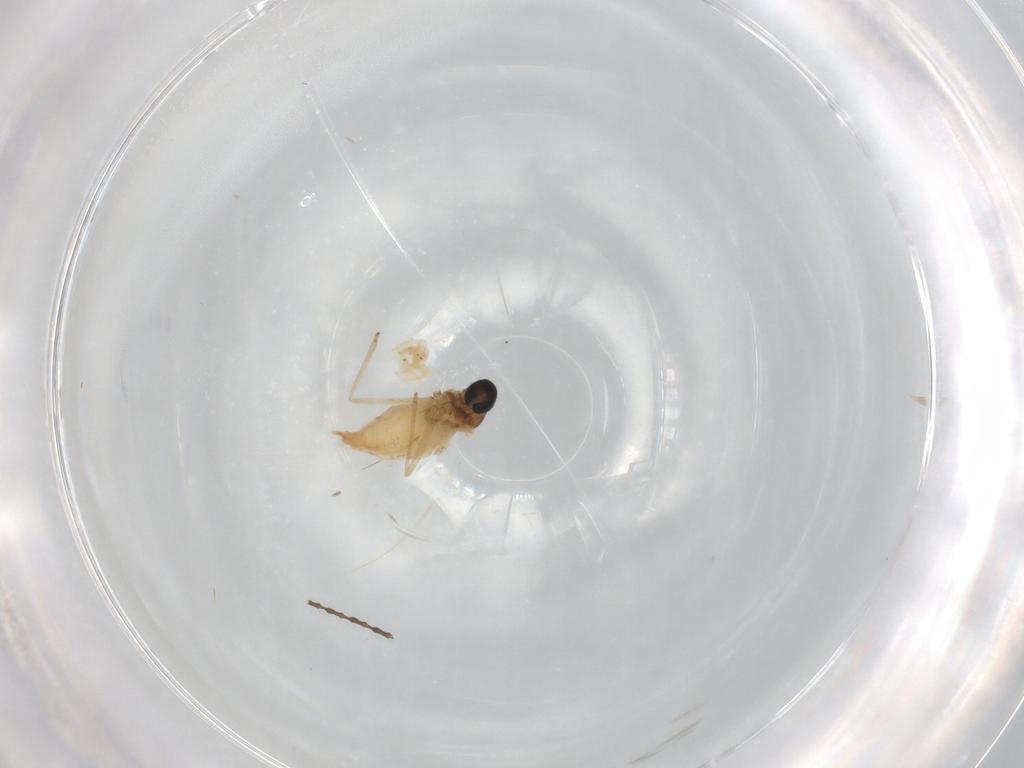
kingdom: Animalia
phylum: Arthropoda
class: Insecta
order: Diptera
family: Cecidomyiidae
